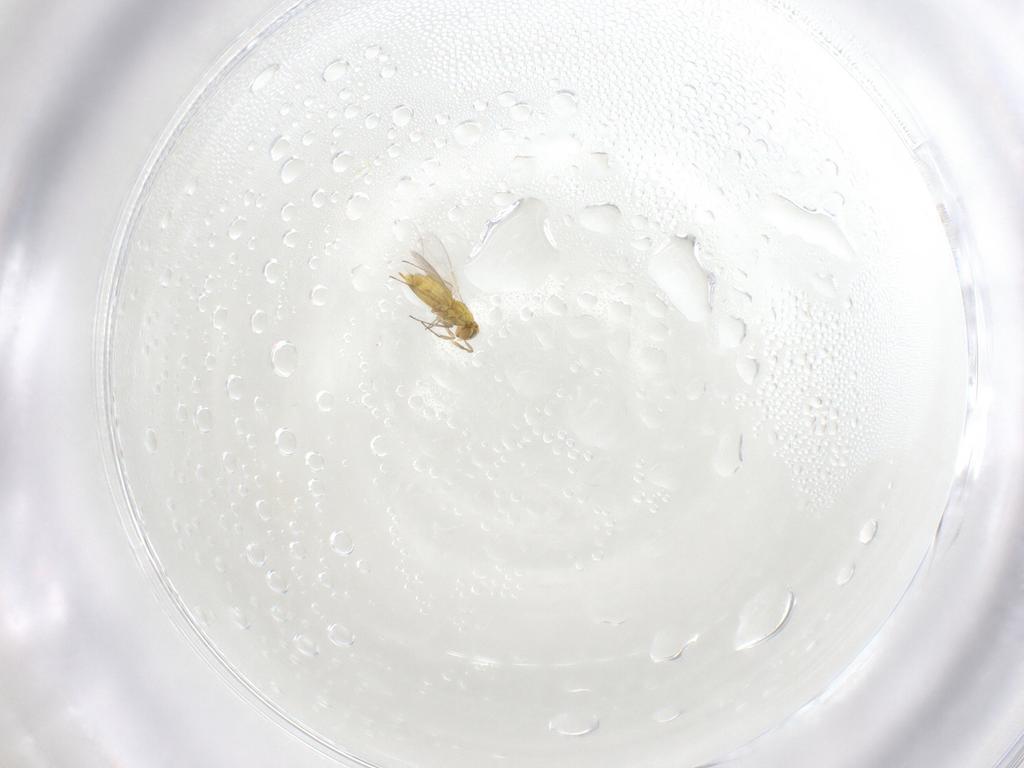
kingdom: Animalia
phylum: Arthropoda
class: Insecta
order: Hymenoptera
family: Aphelinidae
